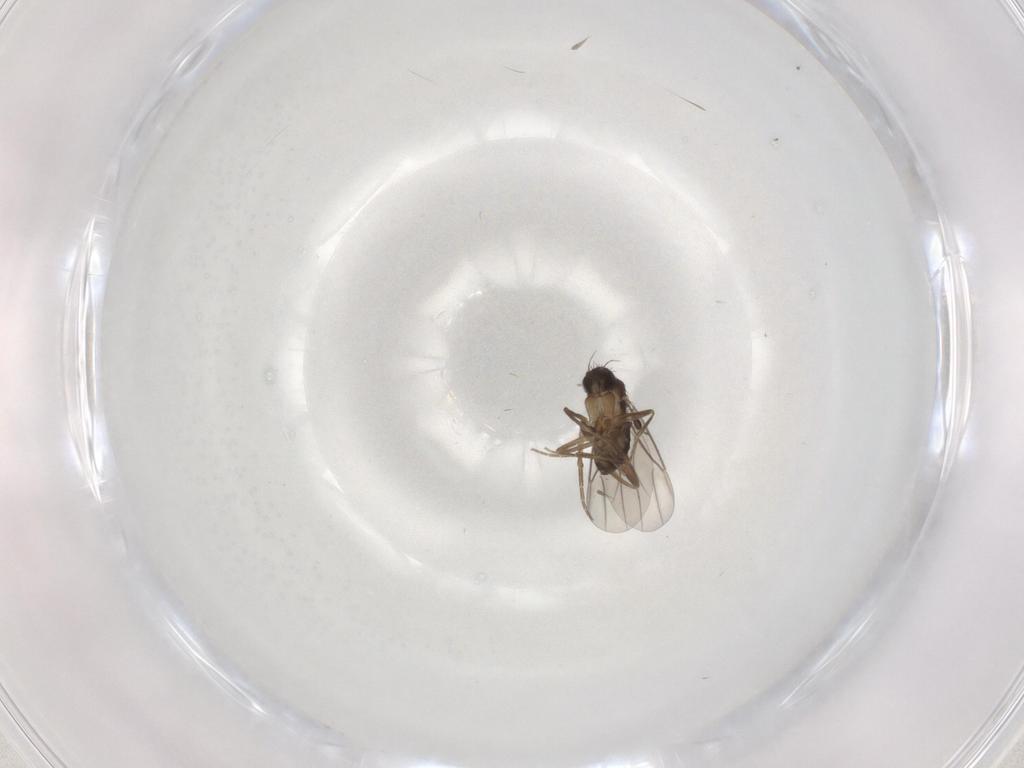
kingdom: Animalia
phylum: Arthropoda
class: Insecta
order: Diptera
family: Phoridae
